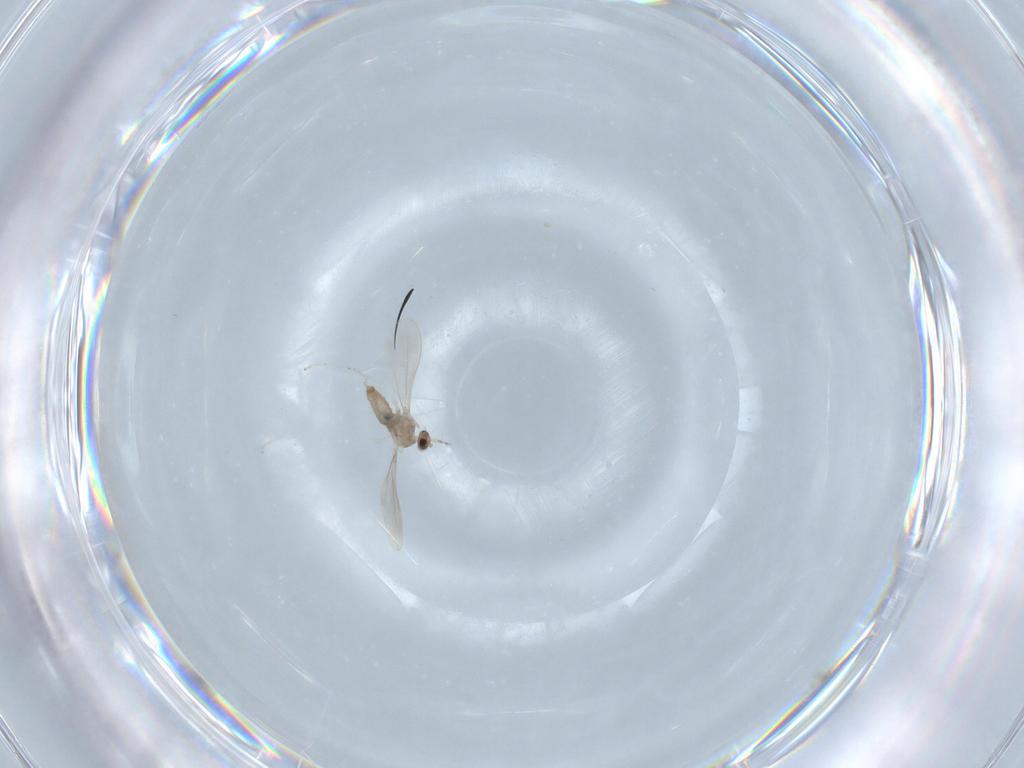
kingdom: Animalia
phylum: Arthropoda
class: Insecta
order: Diptera
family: Cecidomyiidae
